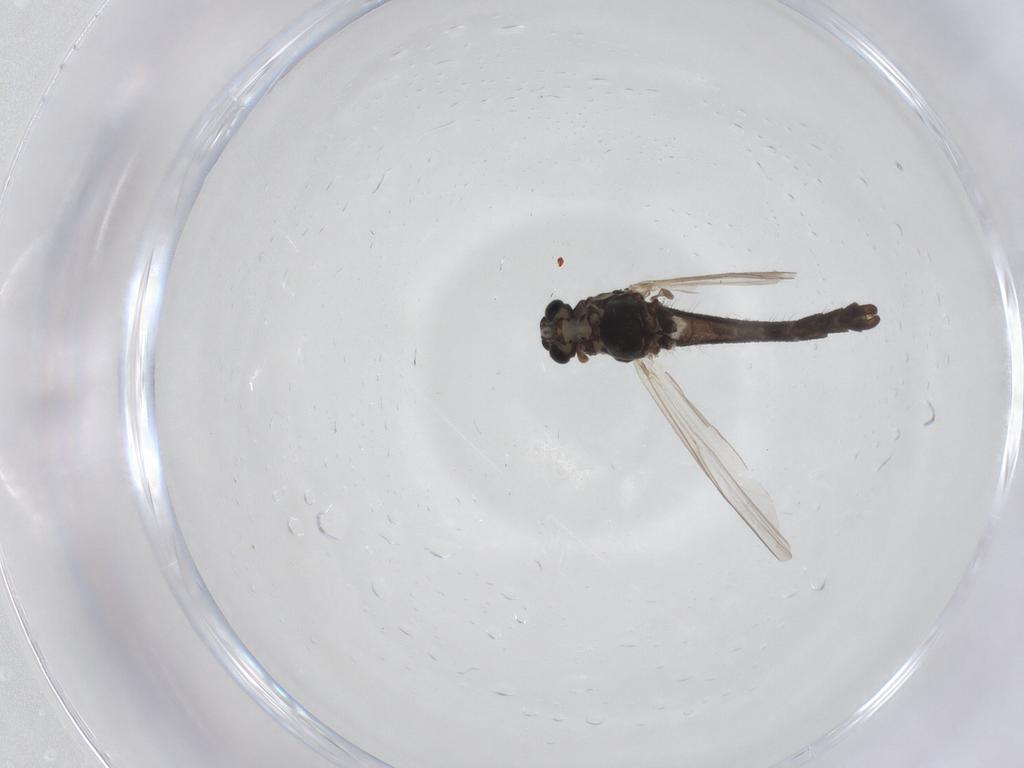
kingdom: Animalia
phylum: Arthropoda
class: Insecta
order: Diptera
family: Chironomidae
